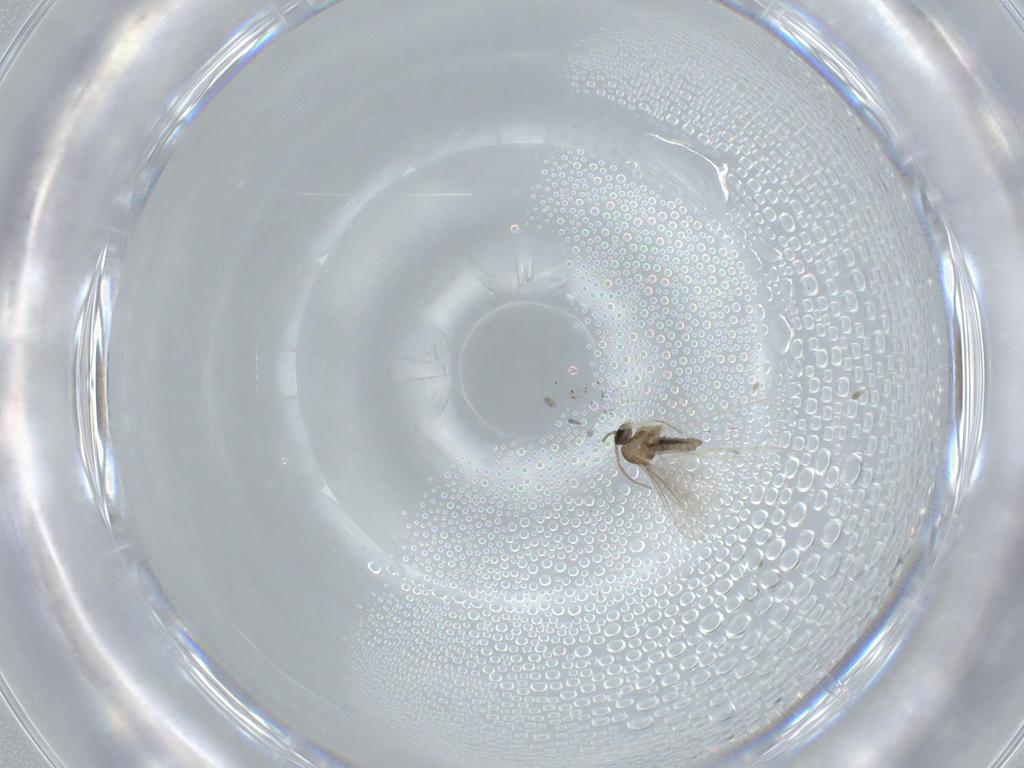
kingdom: Animalia
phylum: Arthropoda
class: Insecta
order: Diptera
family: Cecidomyiidae
